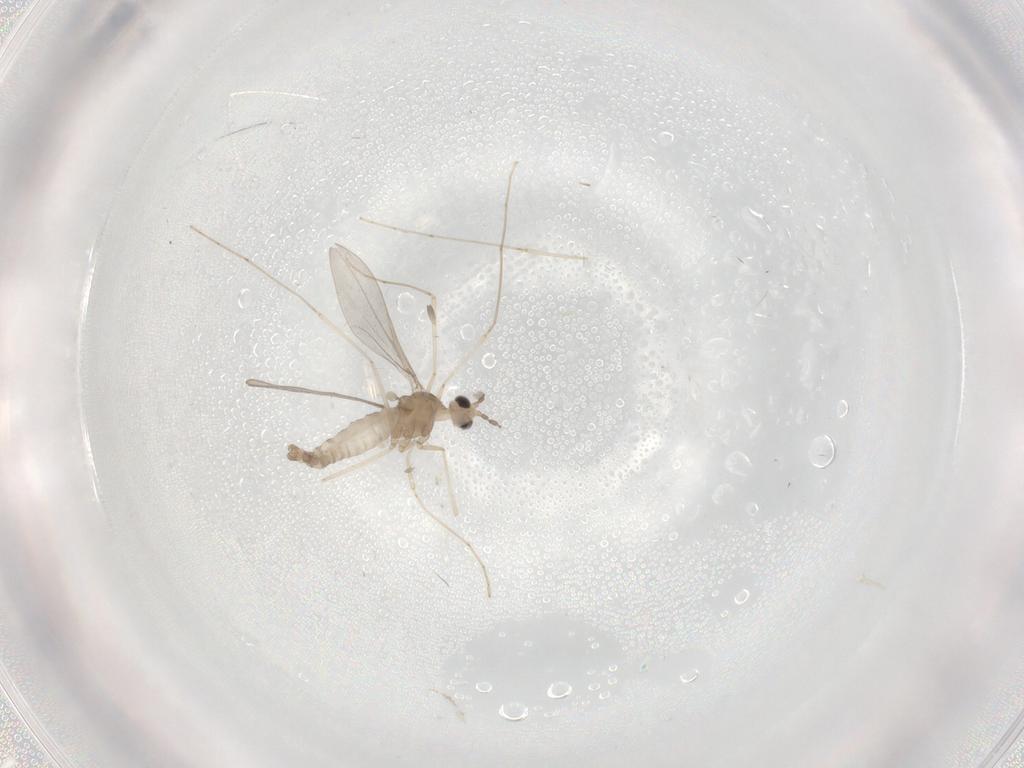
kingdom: Animalia
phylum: Arthropoda
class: Insecta
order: Diptera
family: Cecidomyiidae
